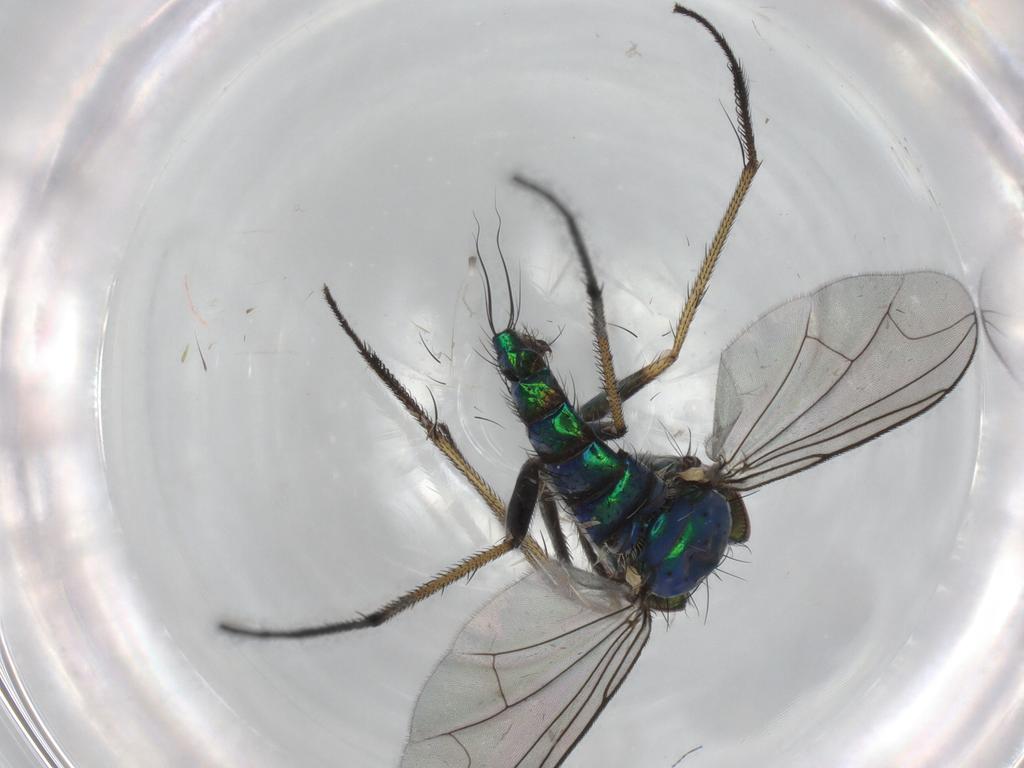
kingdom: Animalia
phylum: Arthropoda
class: Insecta
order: Diptera
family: Dolichopodidae
